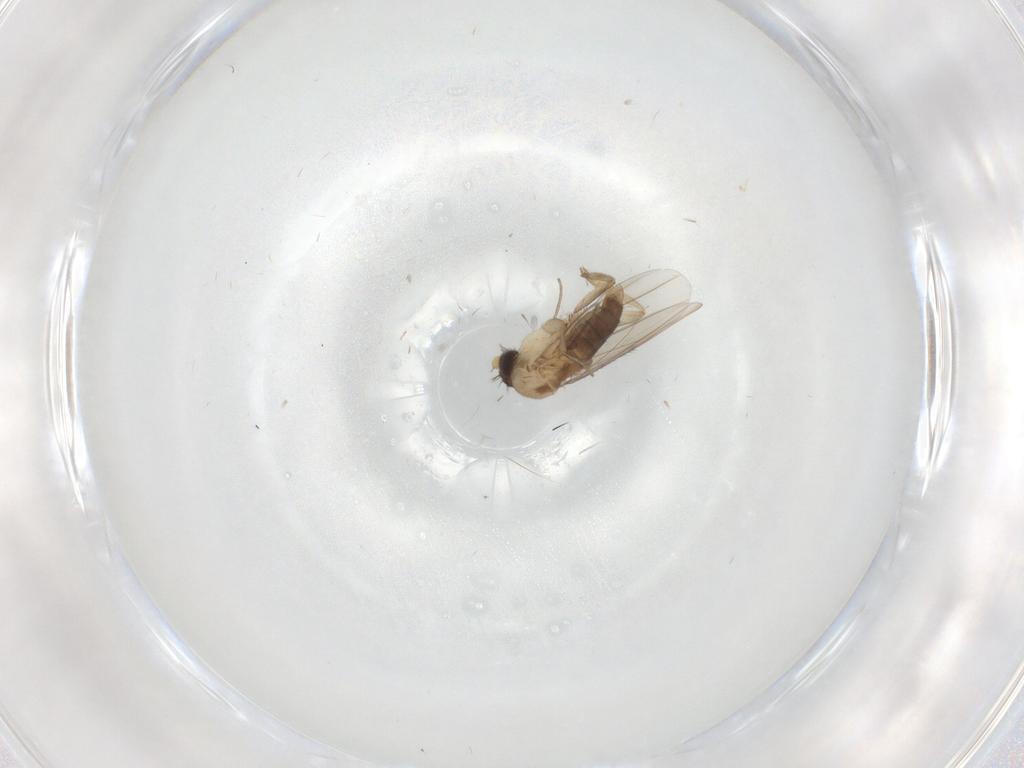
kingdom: Animalia
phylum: Arthropoda
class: Insecta
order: Diptera
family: Phoridae
